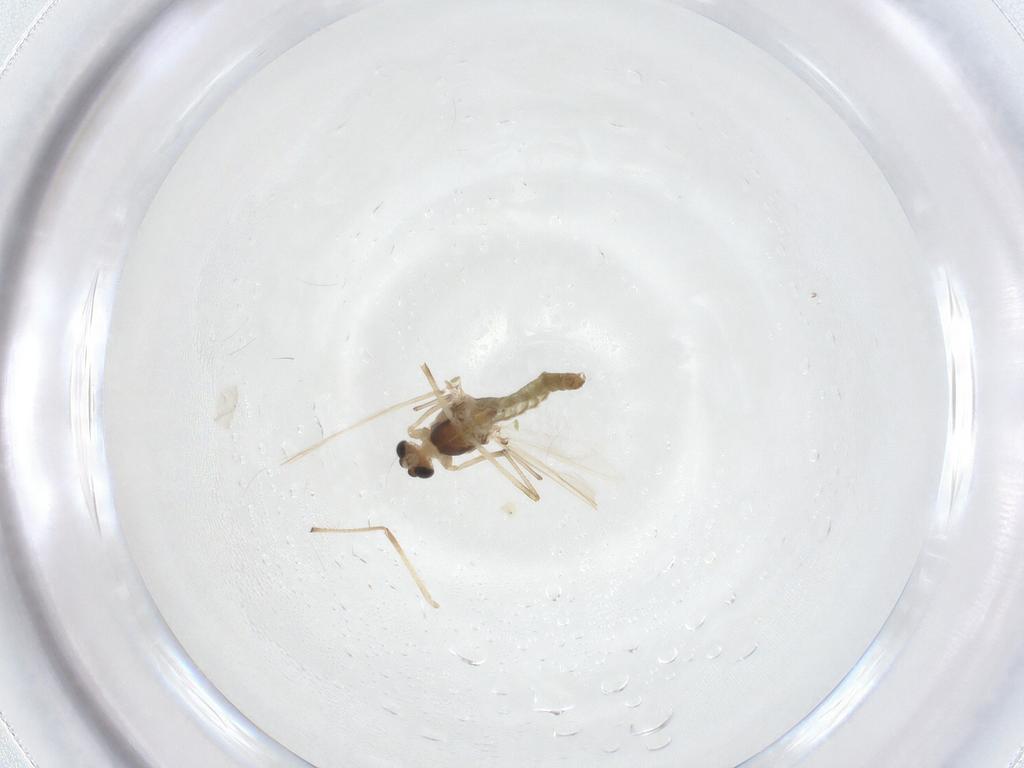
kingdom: Animalia
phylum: Arthropoda
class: Insecta
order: Diptera
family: Chironomidae
